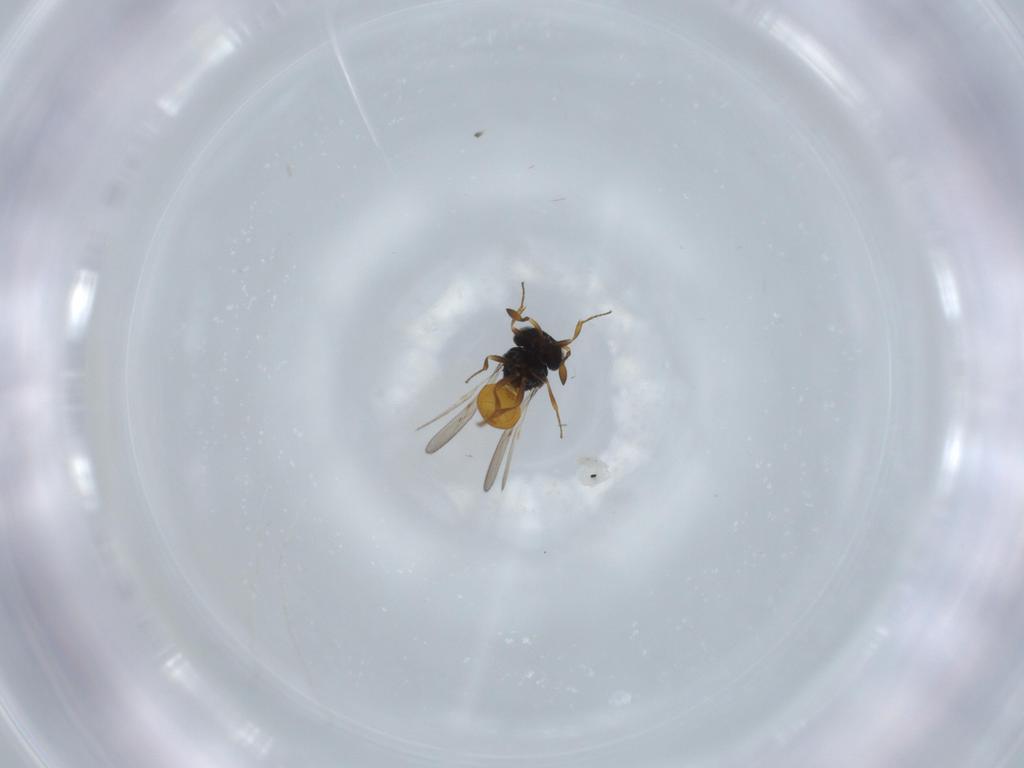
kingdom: Animalia
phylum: Arthropoda
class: Insecta
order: Hymenoptera
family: Scelionidae
